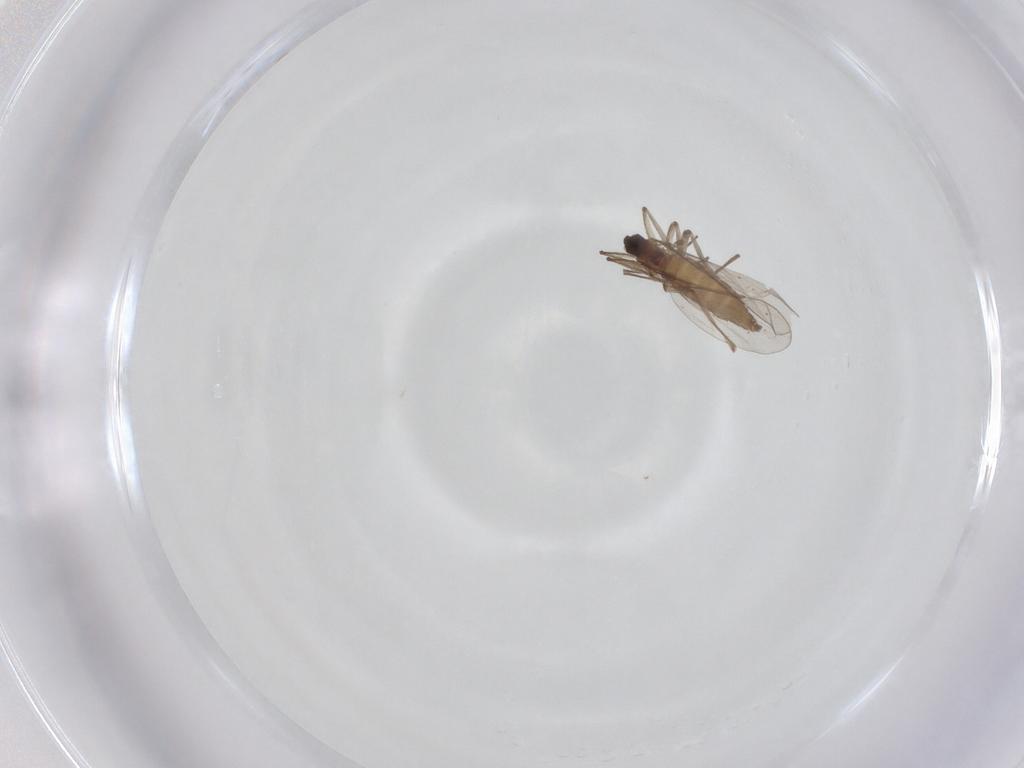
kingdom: Animalia
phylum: Arthropoda
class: Insecta
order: Diptera
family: Cecidomyiidae
